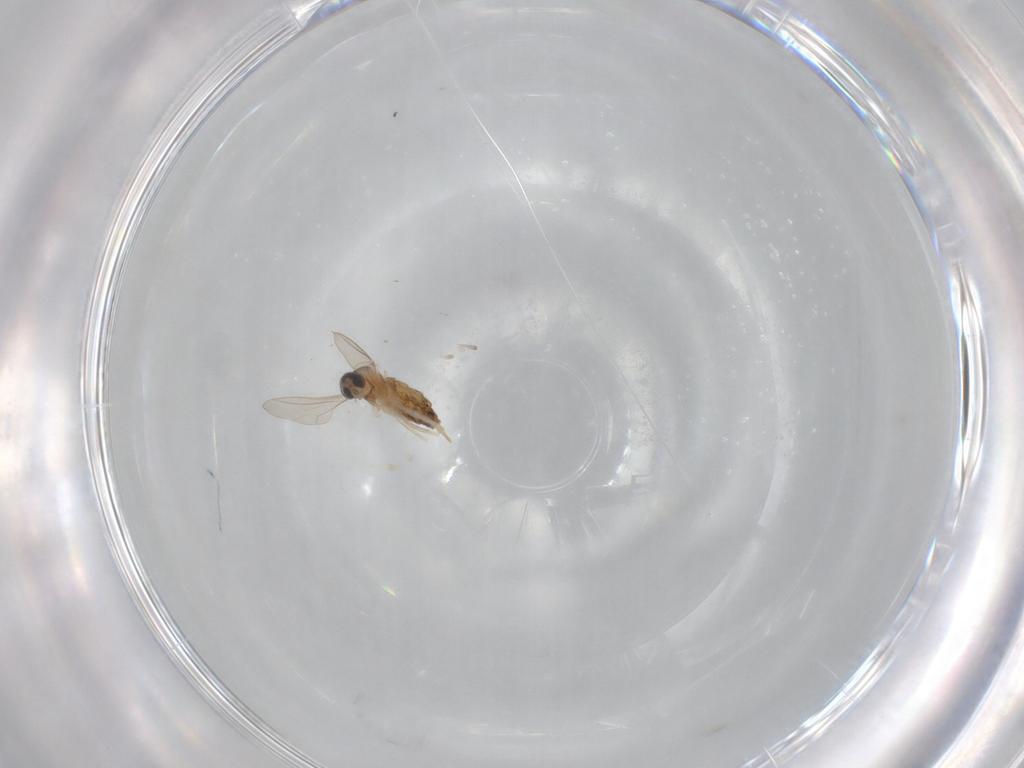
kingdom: Animalia
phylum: Arthropoda
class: Insecta
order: Diptera
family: Cecidomyiidae
